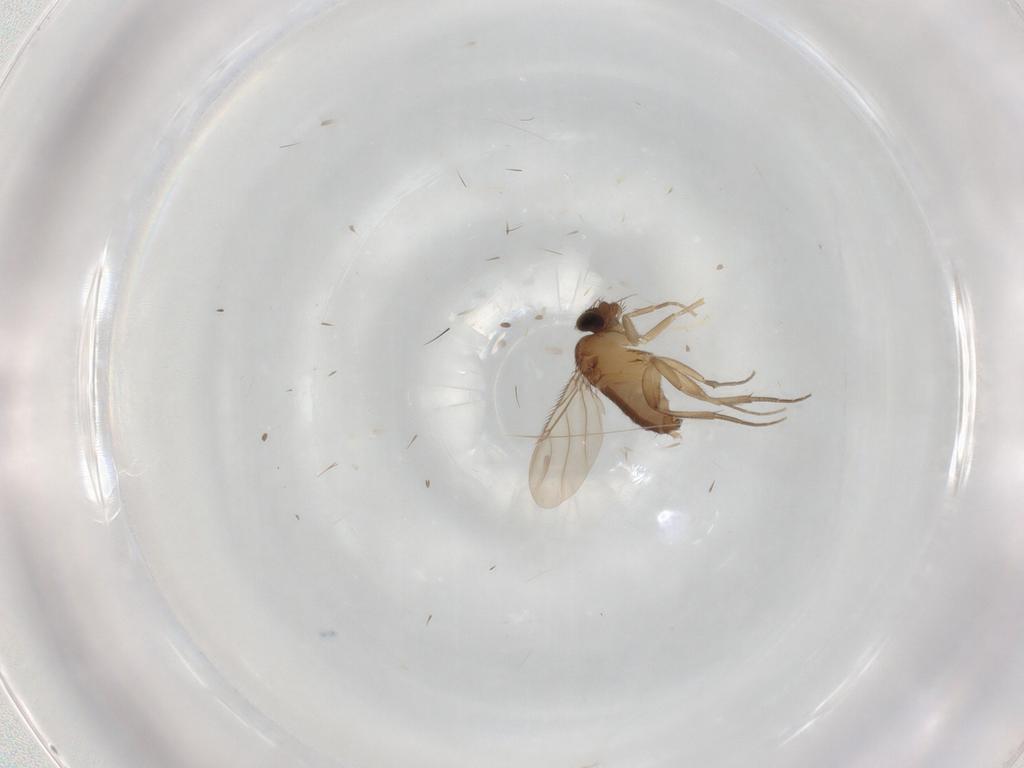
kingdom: Animalia
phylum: Arthropoda
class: Insecta
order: Diptera
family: Phoridae
